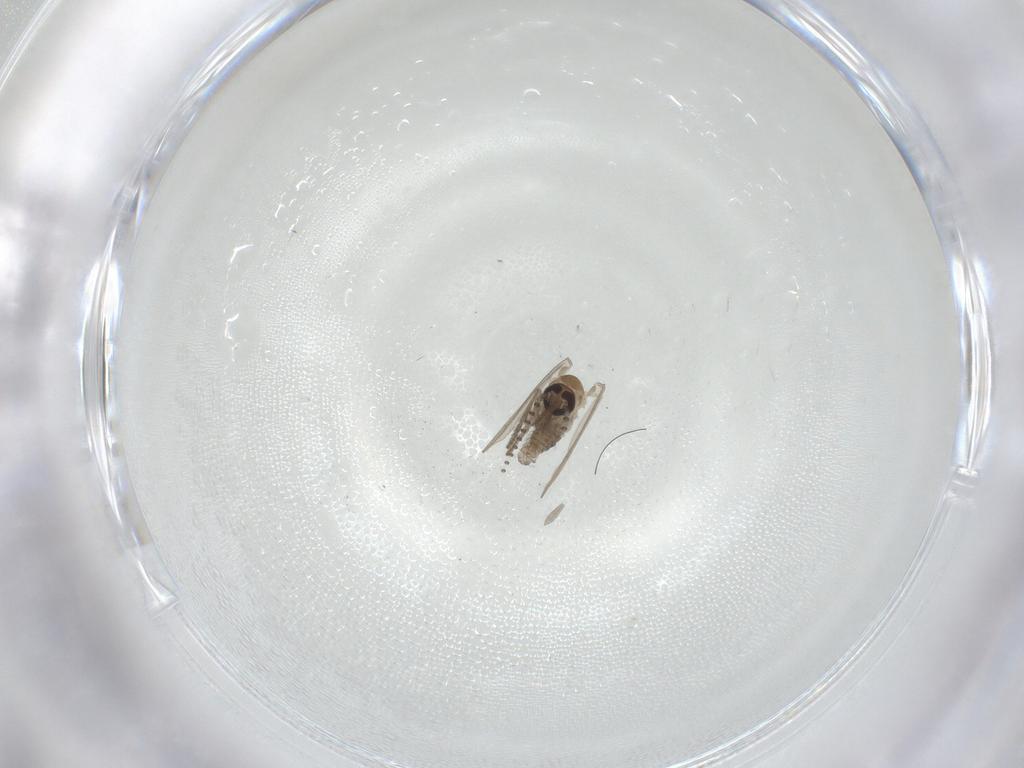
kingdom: Animalia
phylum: Arthropoda
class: Insecta
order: Diptera
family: Psychodidae
